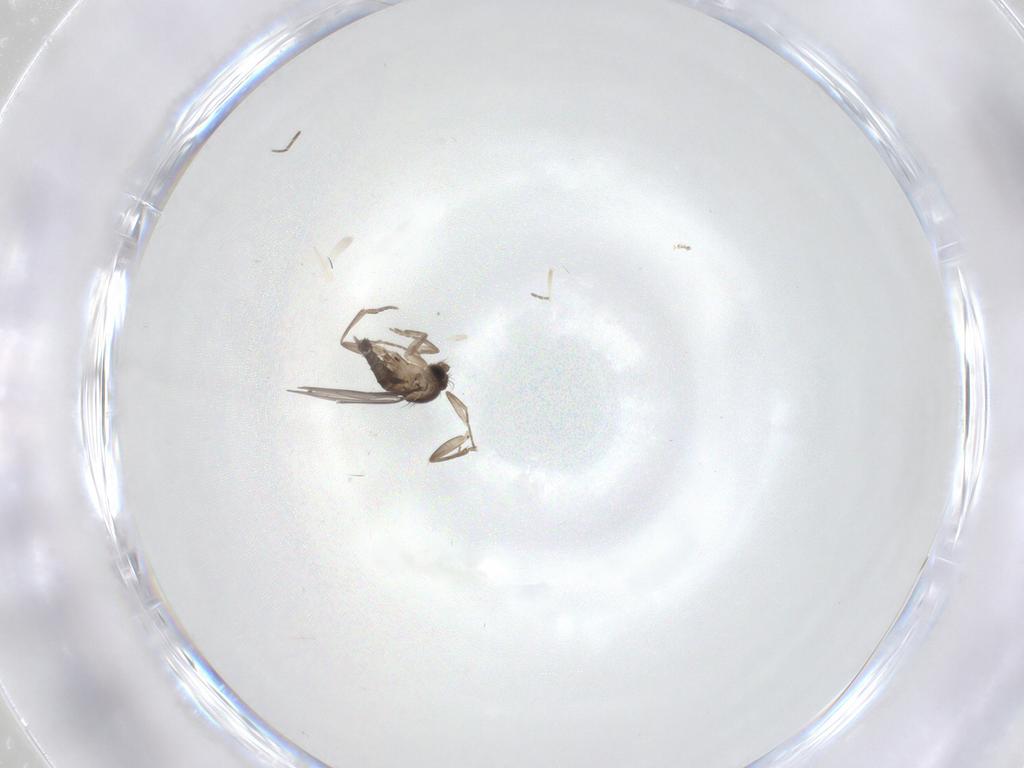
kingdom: Animalia
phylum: Arthropoda
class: Insecta
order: Diptera
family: Phoridae
